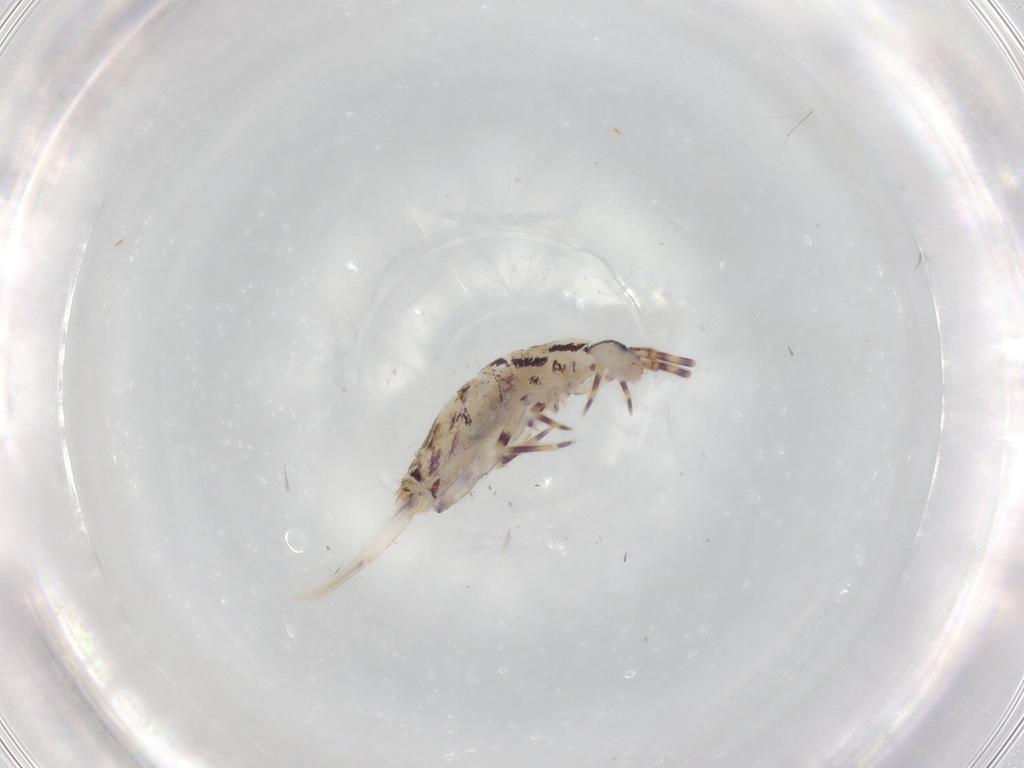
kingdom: Animalia
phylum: Arthropoda
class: Collembola
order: Entomobryomorpha
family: Entomobryidae
